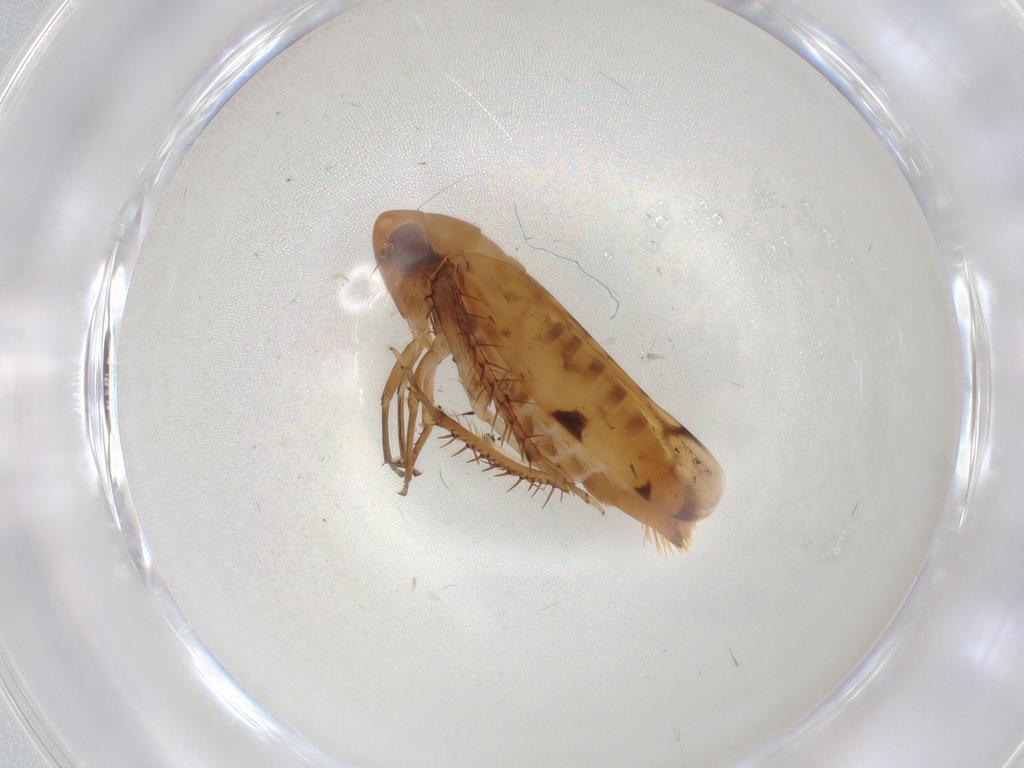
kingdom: Animalia
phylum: Arthropoda
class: Insecta
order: Hemiptera
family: Cicadellidae
